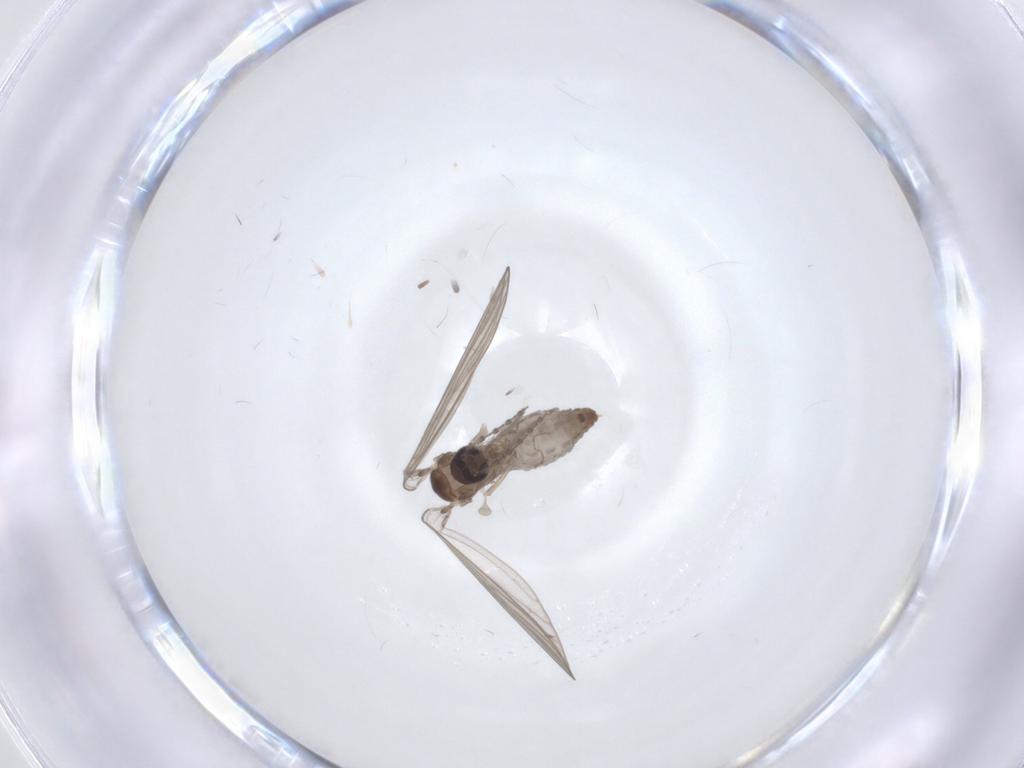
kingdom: Animalia
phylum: Arthropoda
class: Insecta
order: Diptera
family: Psychodidae
